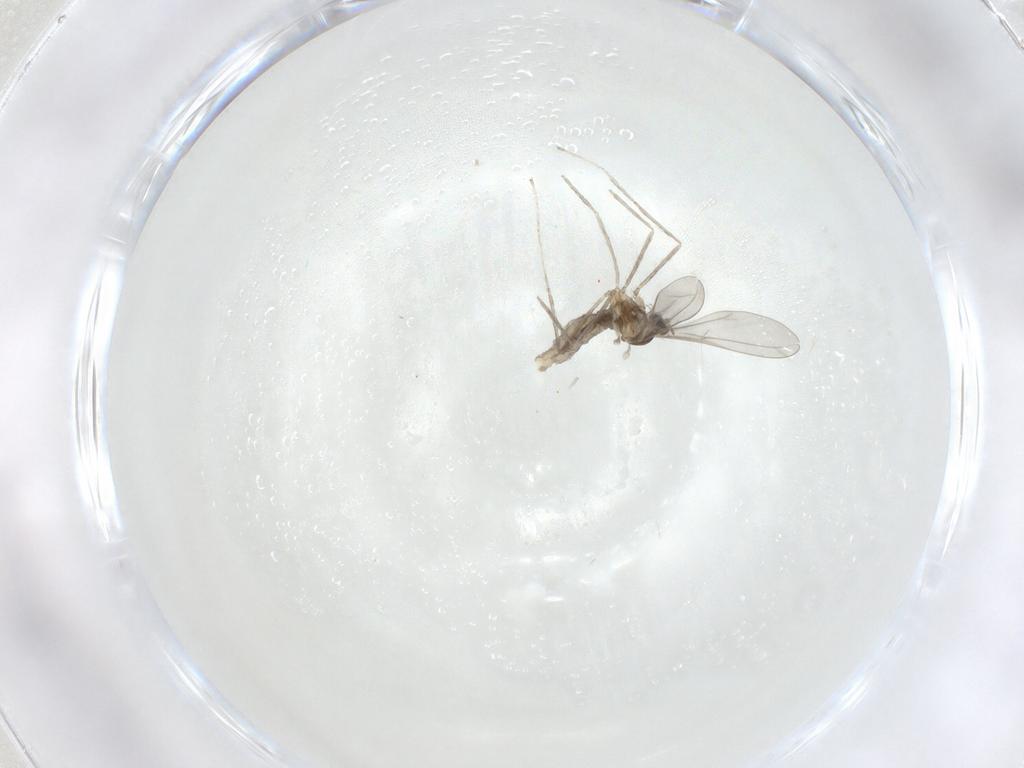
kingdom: Animalia
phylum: Arthropoda
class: Insecta
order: Diptera
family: Cecidomyiidae
